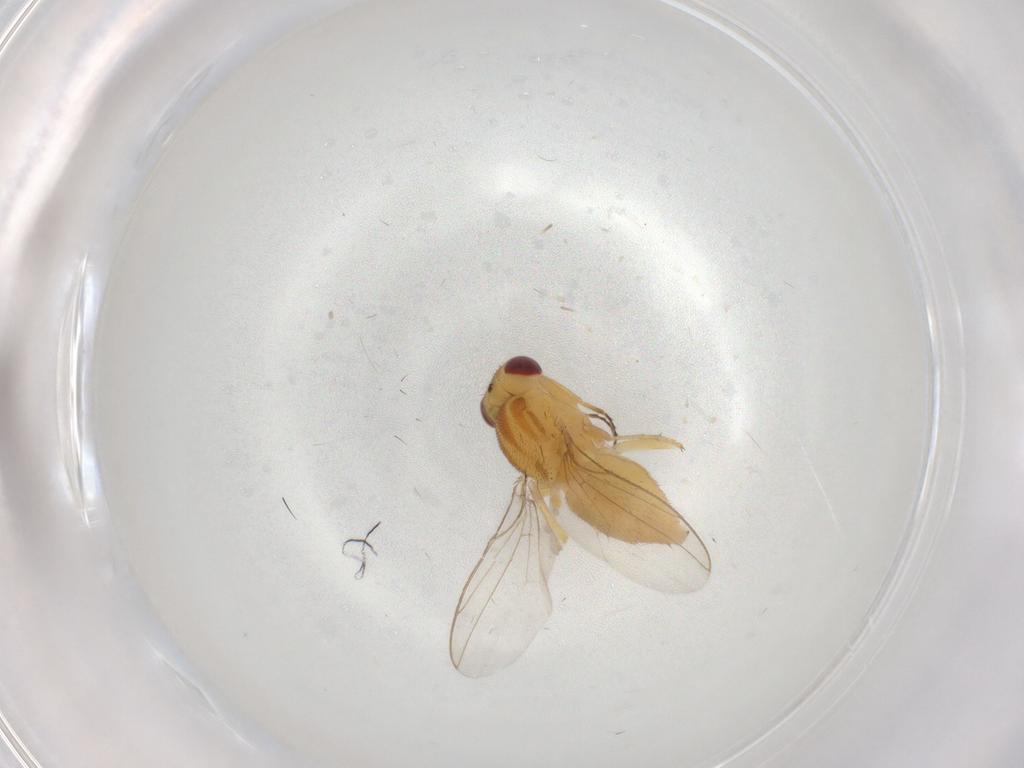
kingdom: Animalia
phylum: Arthropoda
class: Insecta
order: Diptera
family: Chloropidae
